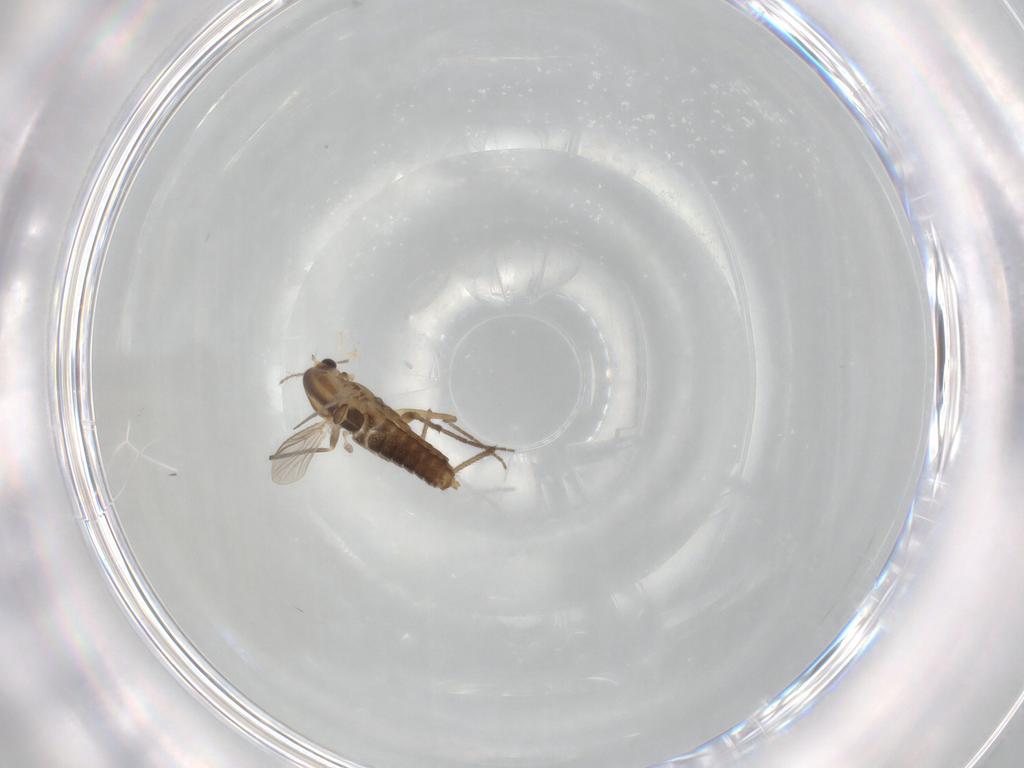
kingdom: Animalia
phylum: Arthropoda
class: Insecta
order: Diptera
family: Chironomidae
